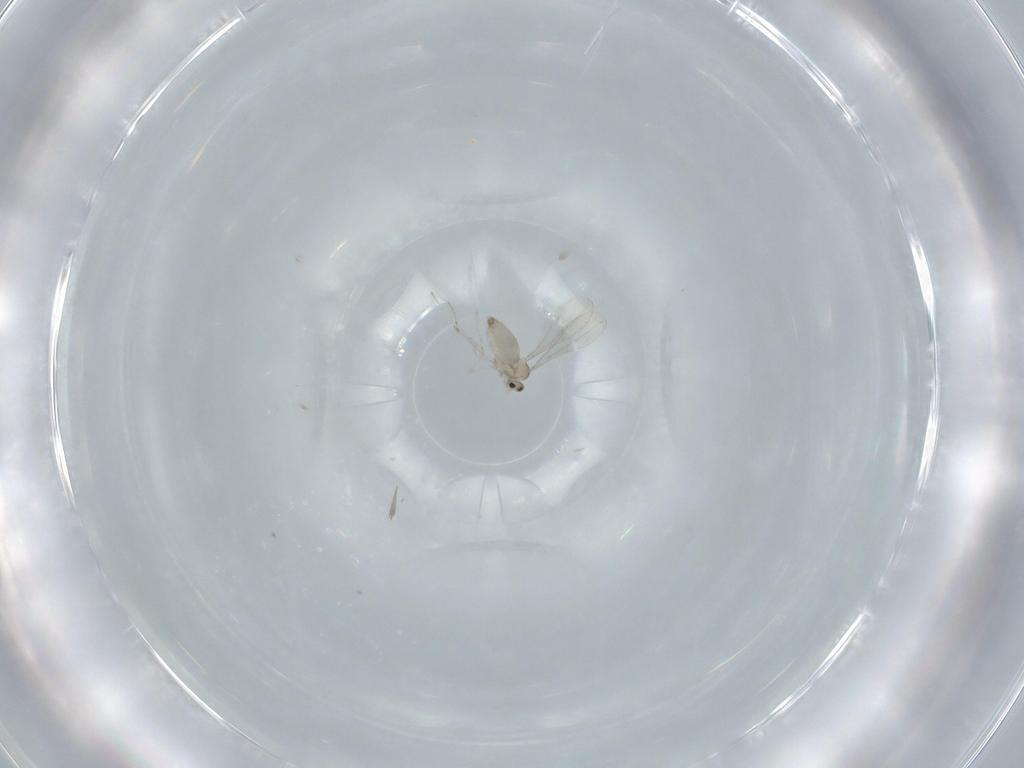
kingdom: Animalia
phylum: Arthropoda
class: Insecta
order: Diptera
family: Cecidomyiidae
